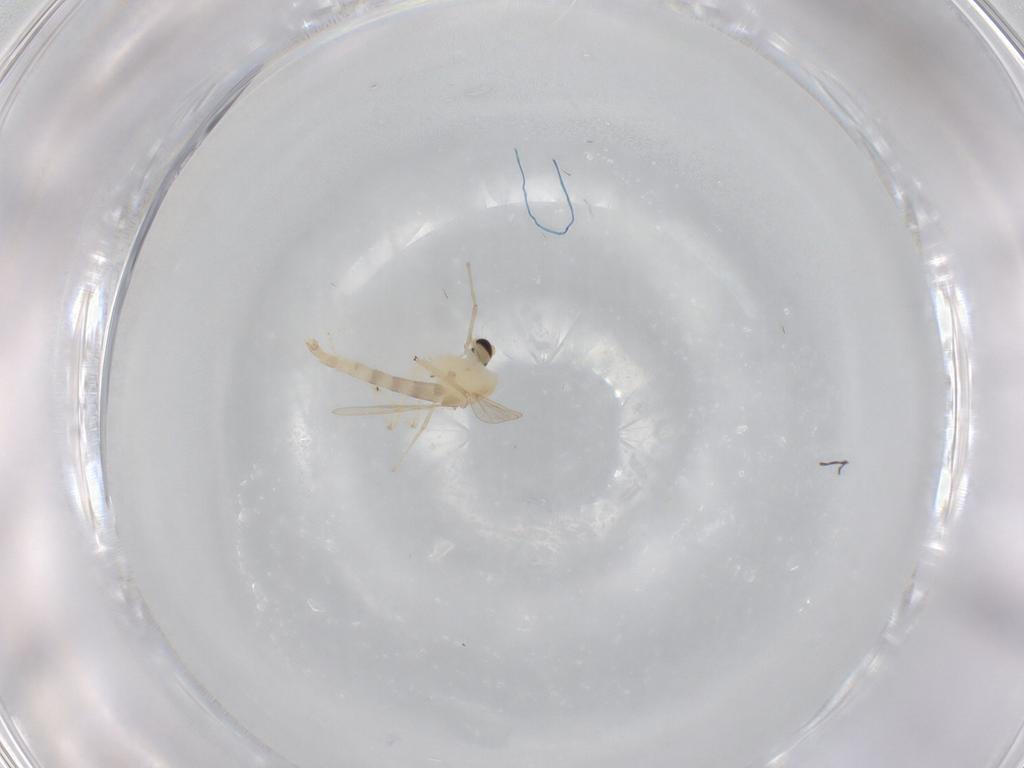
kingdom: Animalia
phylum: Arthropoda
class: Insecta
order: Diptera
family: Chironomidae
